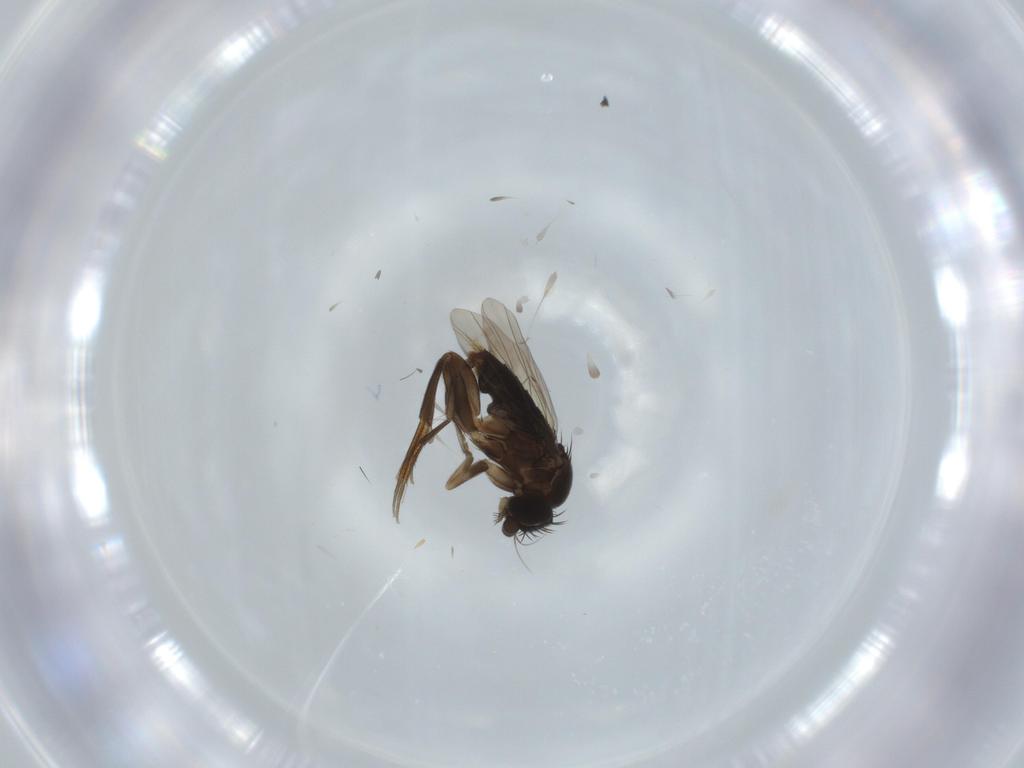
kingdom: Animalia
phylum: Arthropoda
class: Insecta
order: Diptera
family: Phoridae
